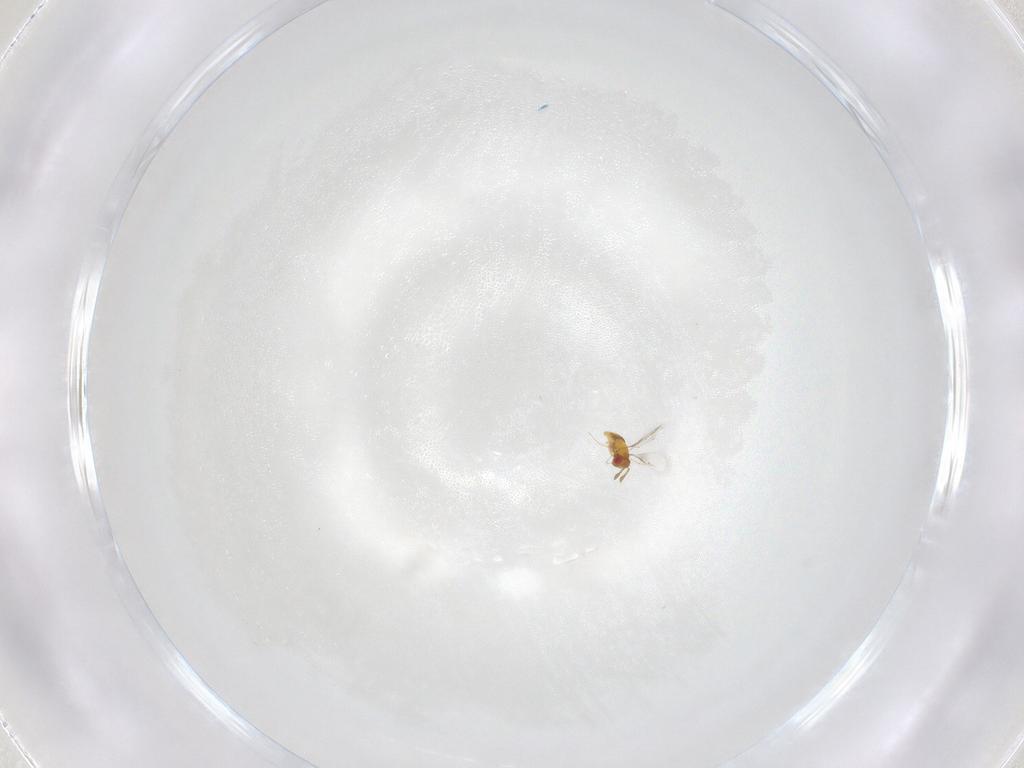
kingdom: Animalia
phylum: Arthropoda
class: Insecta
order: Hymenoptera
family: Trichogrammatidae
